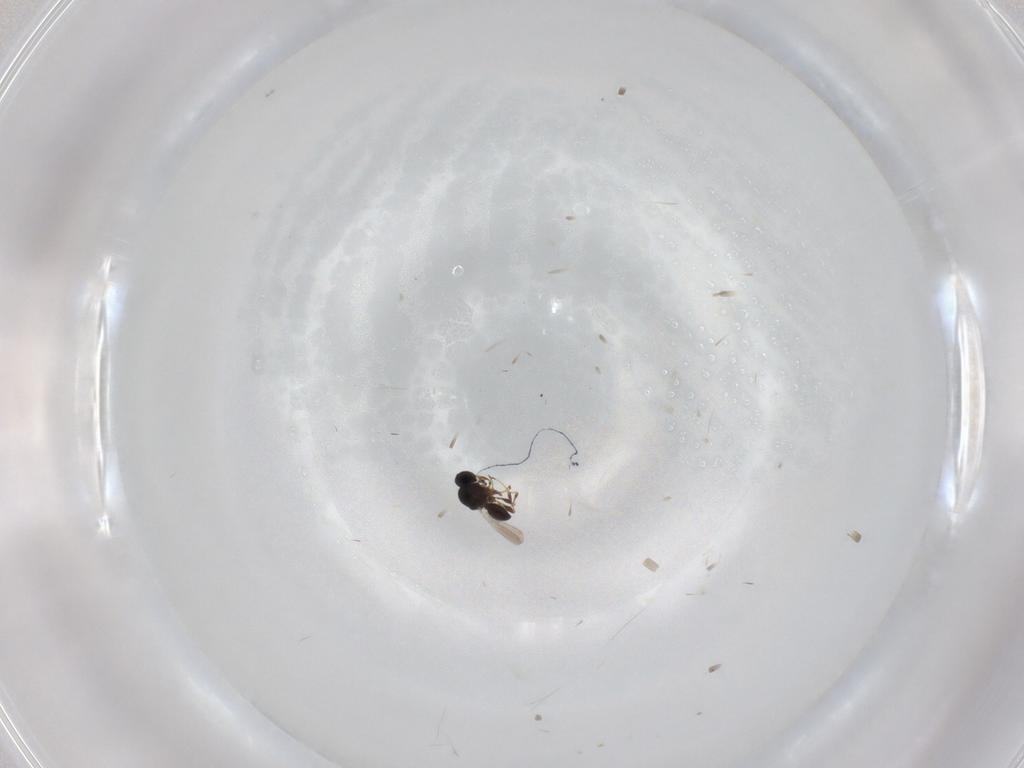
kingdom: Animalia
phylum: Arthropoda
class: Insecta
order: Hymenoptera
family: Platygastridae
